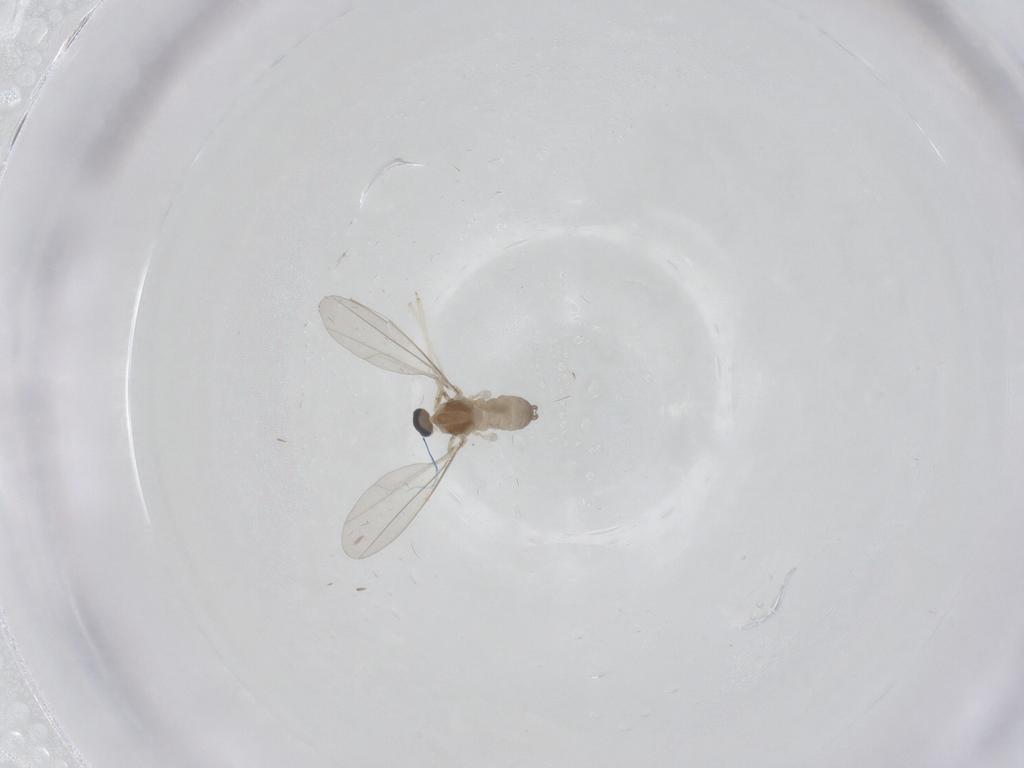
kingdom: Animalia
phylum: Arthropoda
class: Insecta
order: Diptera
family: Cecidomyiidae
